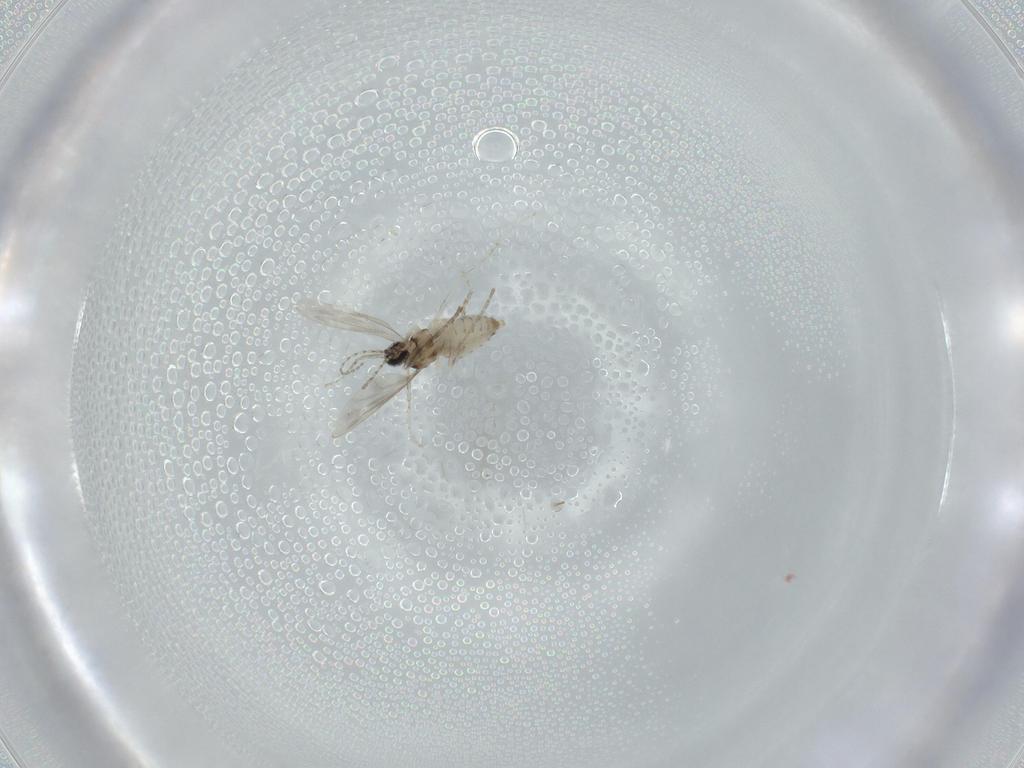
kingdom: Animalia
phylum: Arthropoda
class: Insecta
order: Diptera
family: Cecidomyiidae
